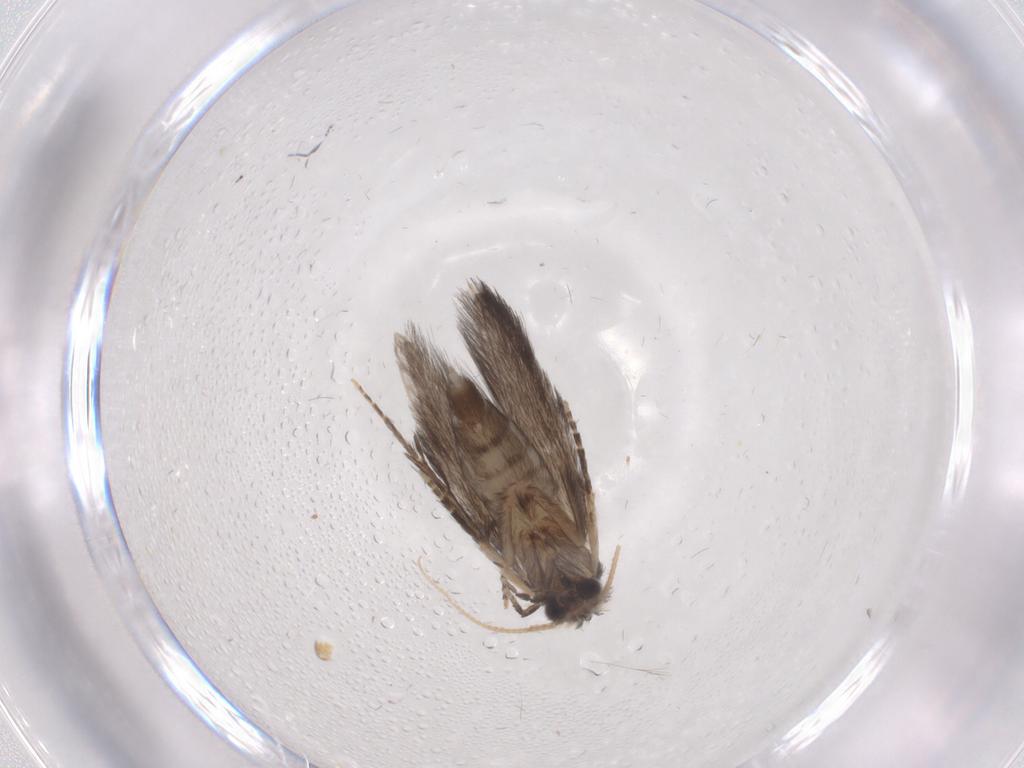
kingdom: Animalia
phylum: Arthropoda
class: Insecta
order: Trichoptera
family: Hydroptilidae
